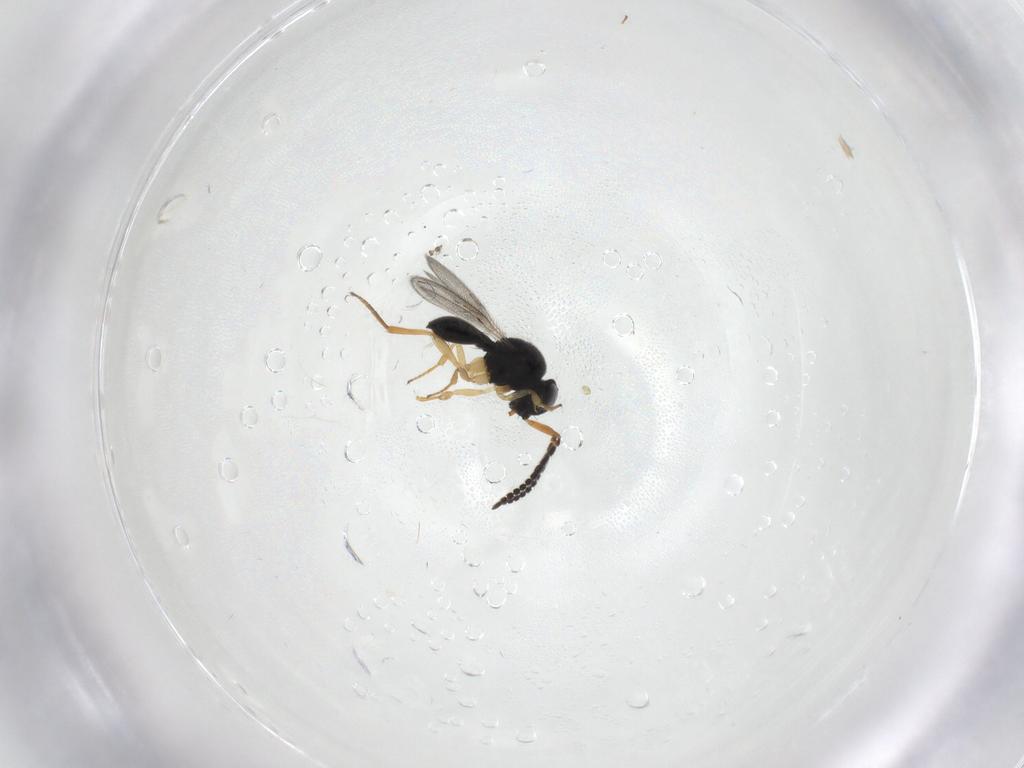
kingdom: Animalia
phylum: Arthropoda
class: Insecta
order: Hymenoptera
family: Scelionidae
